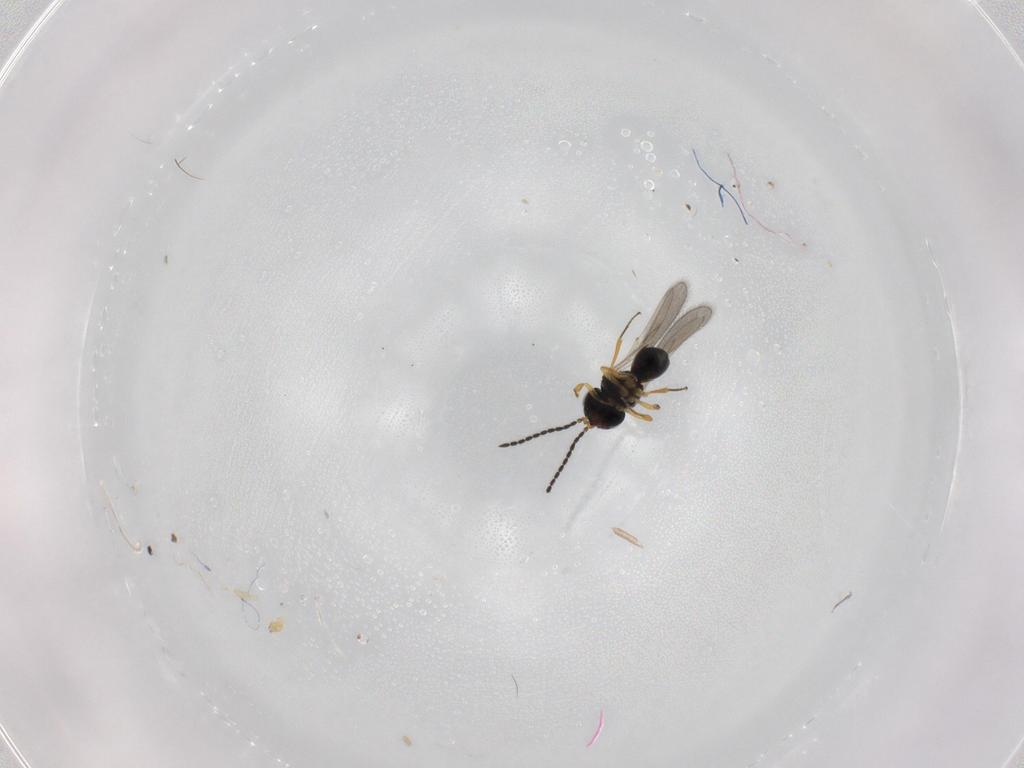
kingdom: Animalia
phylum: Arthropoda
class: Insecta
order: Hymenoptera
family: Scelionidae
